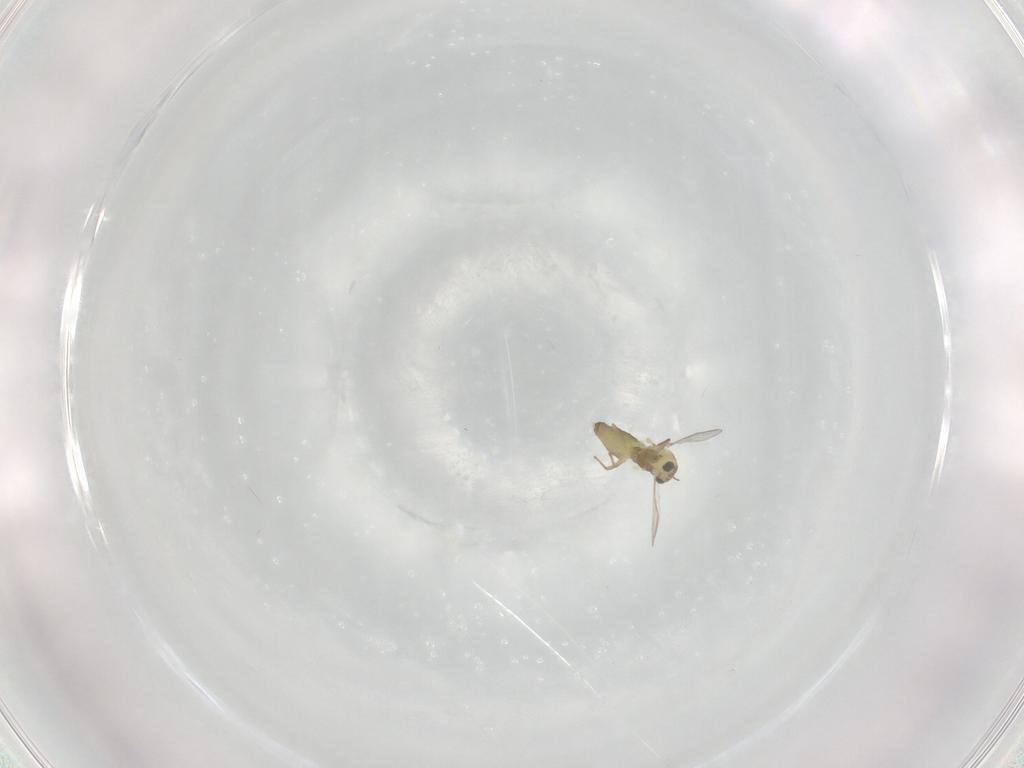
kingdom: Animalia
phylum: Arthropoda
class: Insecta
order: Diptera
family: Chironomidae
